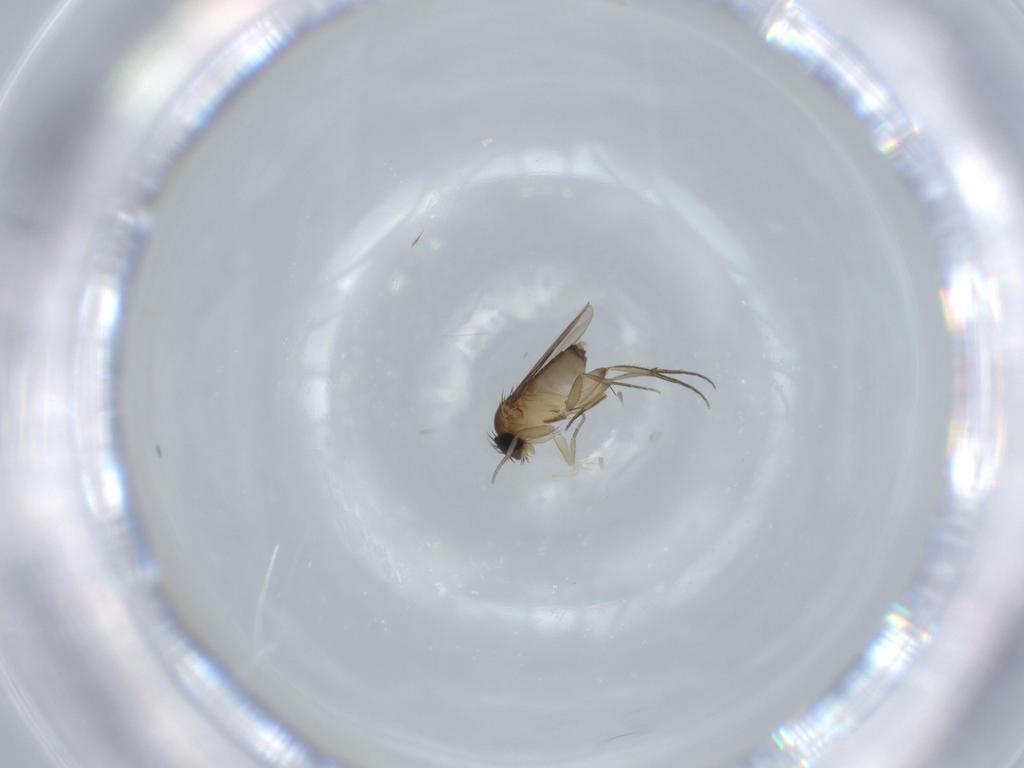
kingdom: Animalia
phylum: Arthropoda
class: Insecta
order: Diptera
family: Phoridae
